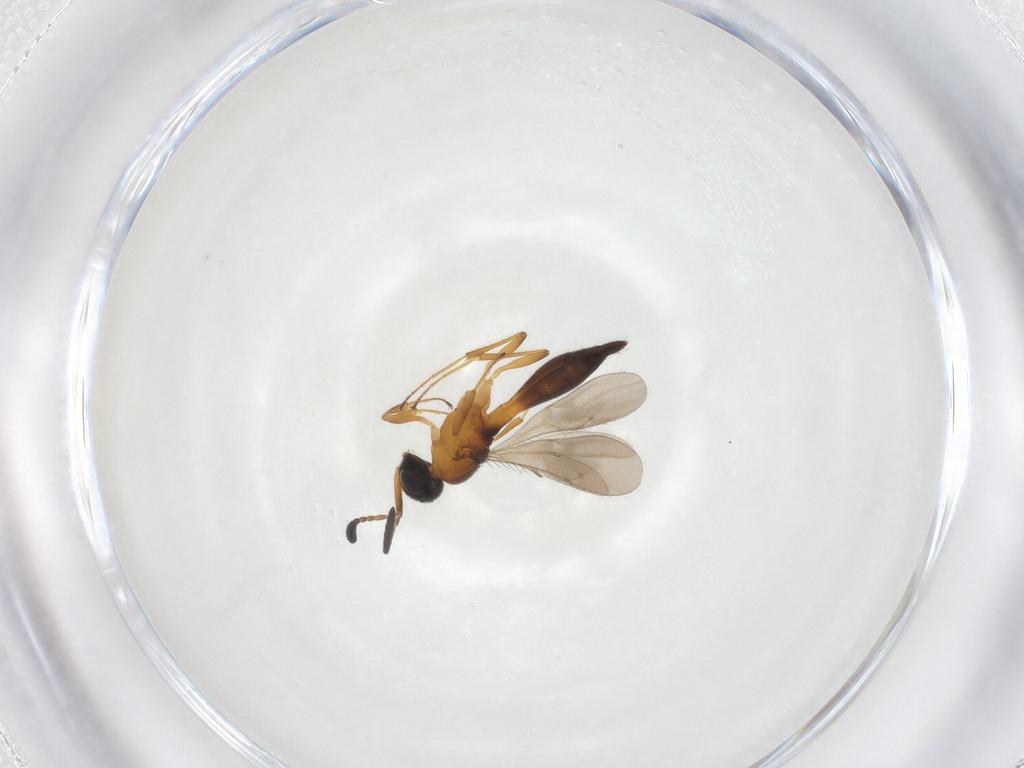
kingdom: Animalia
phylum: Arthropoda
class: Insecta
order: Hymenoptera
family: Scelionidae
